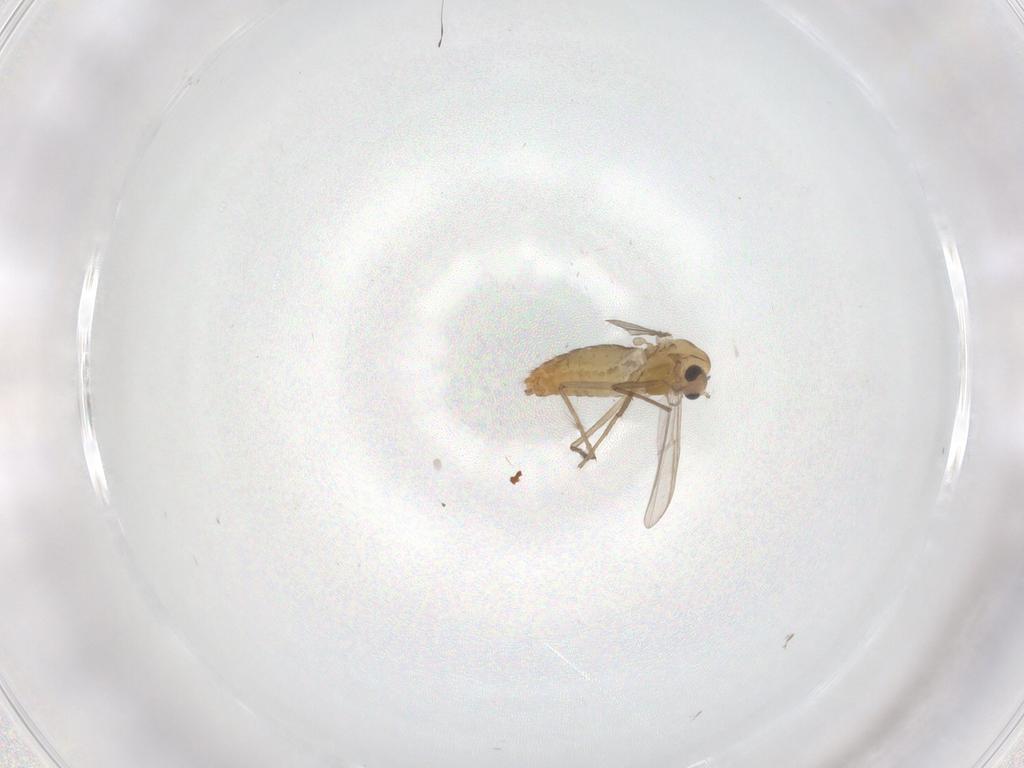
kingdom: Animalia
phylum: Arthropoda
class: Insecta
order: Diptera
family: Chironomidae
